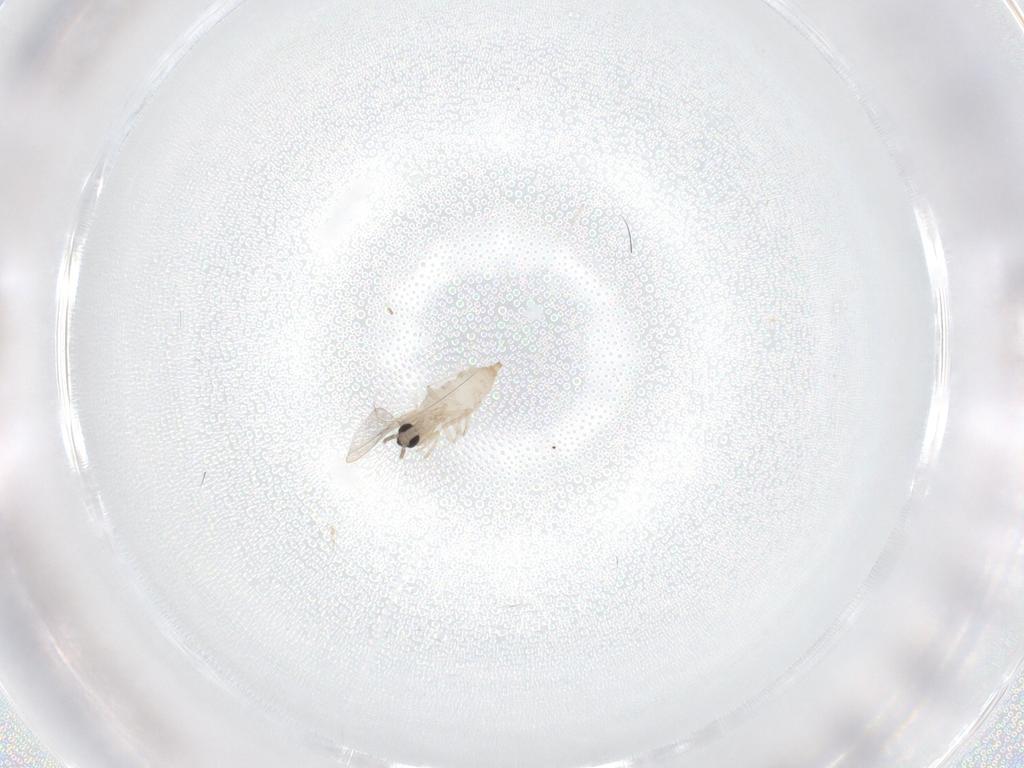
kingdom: Animalia
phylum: Arthropoda
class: Insecta
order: Diptera
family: Cecidomyiidae
